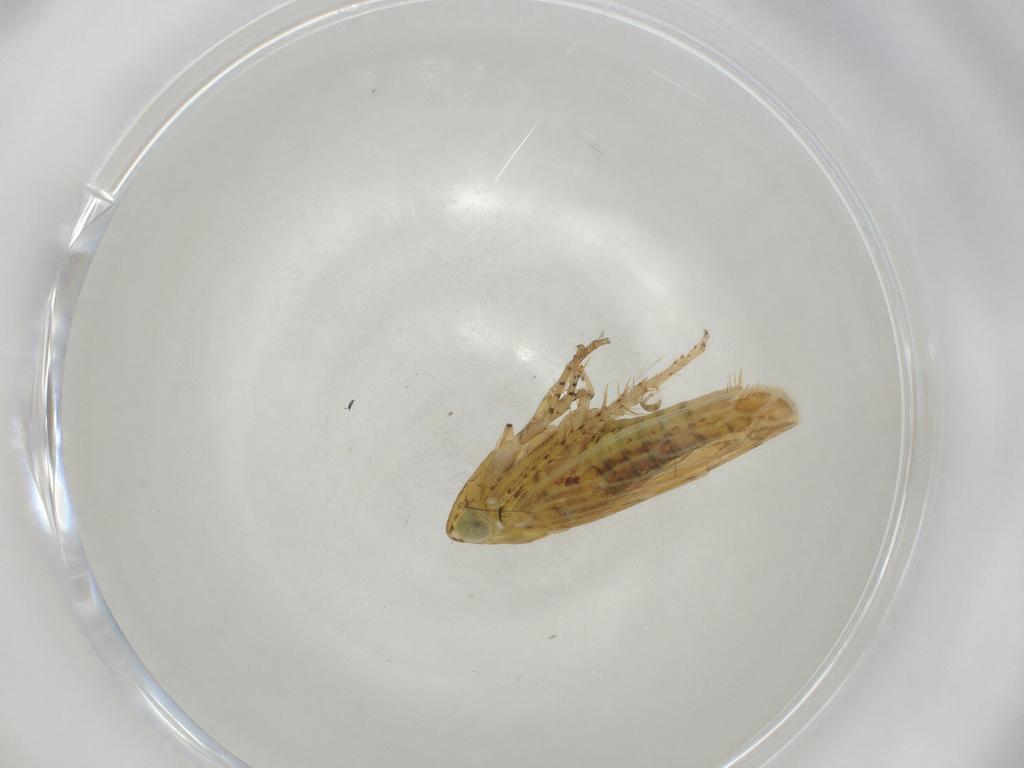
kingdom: Animalia
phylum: Arthropoda
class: Insecta
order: Hemiptera
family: Cicadellidae
